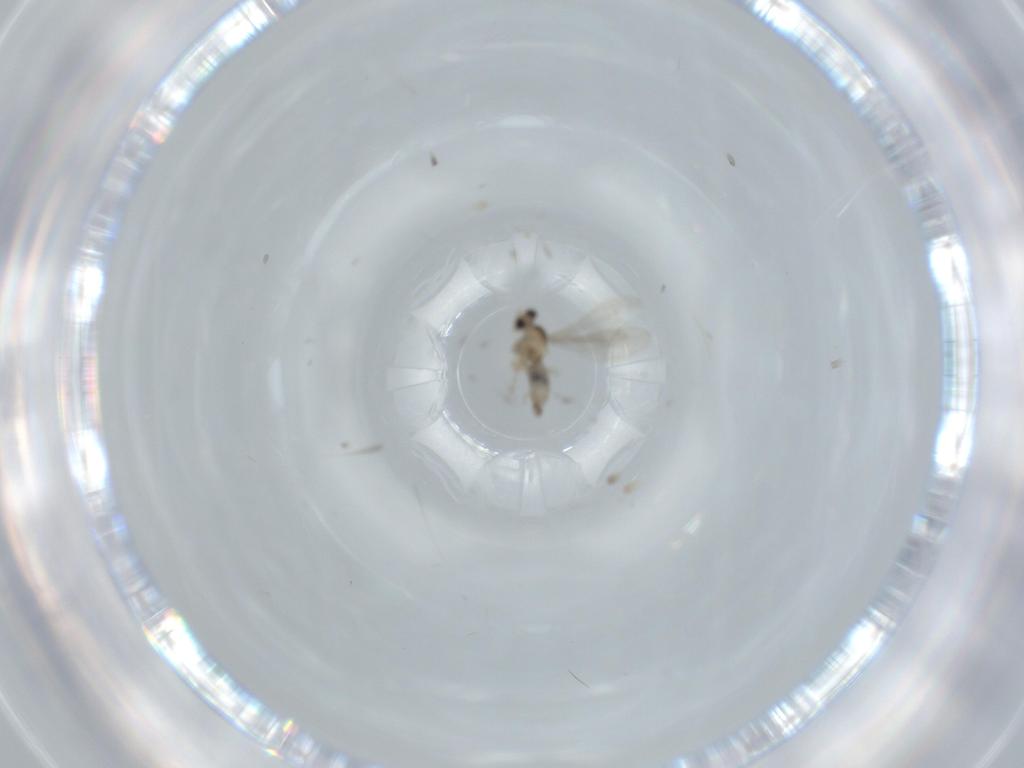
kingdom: Animalia
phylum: Arthropoda
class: Insecta
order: Diptera
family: Milichiidae
